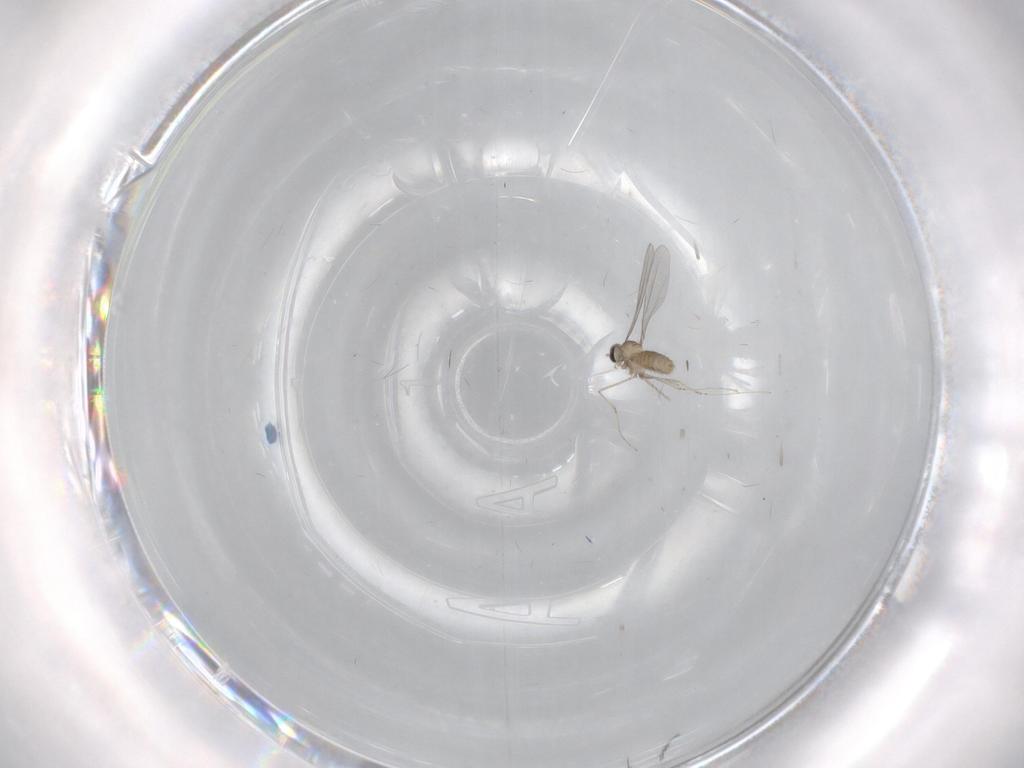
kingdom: Animalia
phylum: Arthropoda
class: Insecta
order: Diptera
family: Cecidomyiidae
